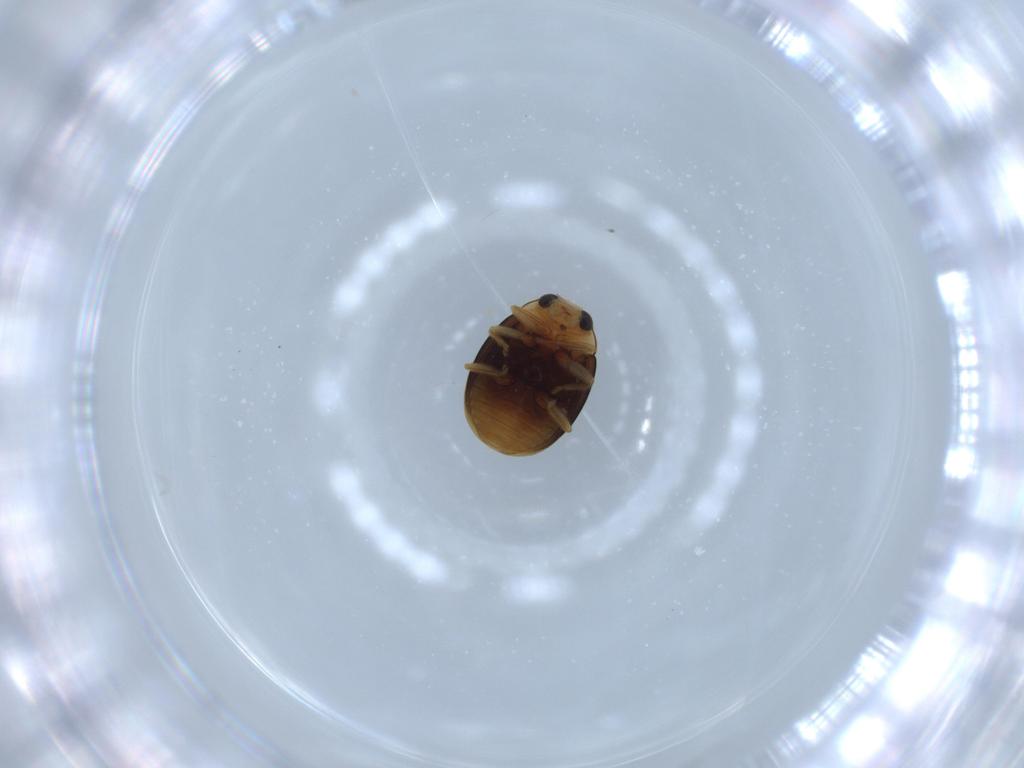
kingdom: Animalia
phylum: Arthropoda
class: Insecta
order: Coleoptera
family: Coccinellidae
